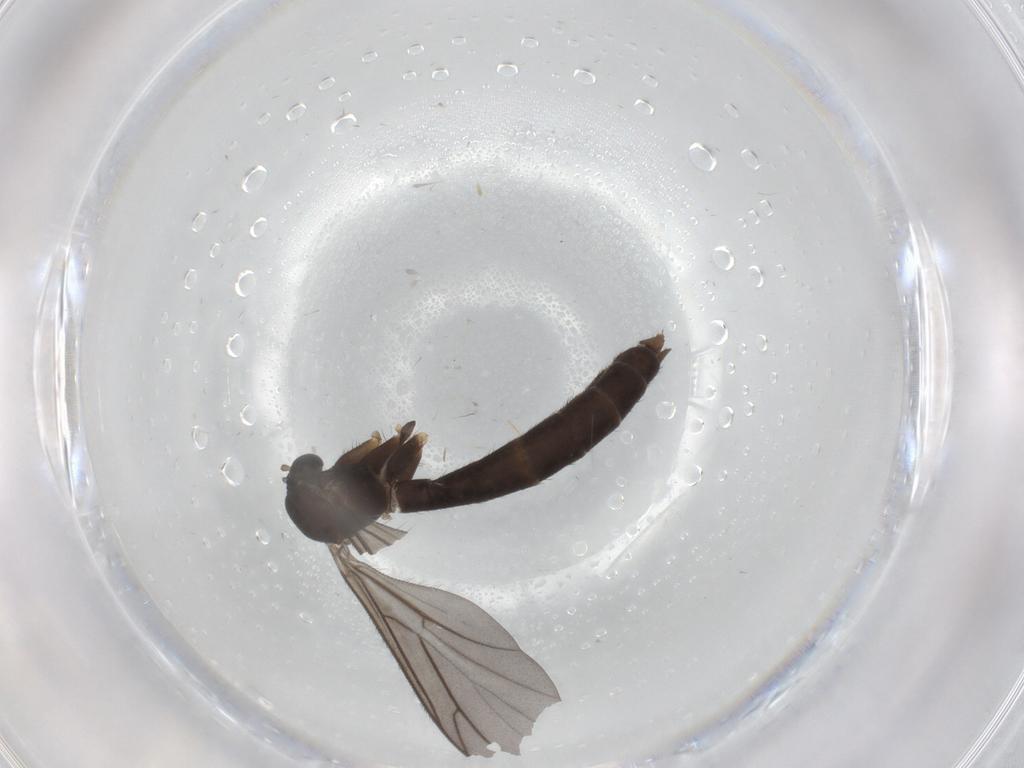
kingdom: Animalia
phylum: Arthropoda
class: Insecta
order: Diptera
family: Keroplatidae
